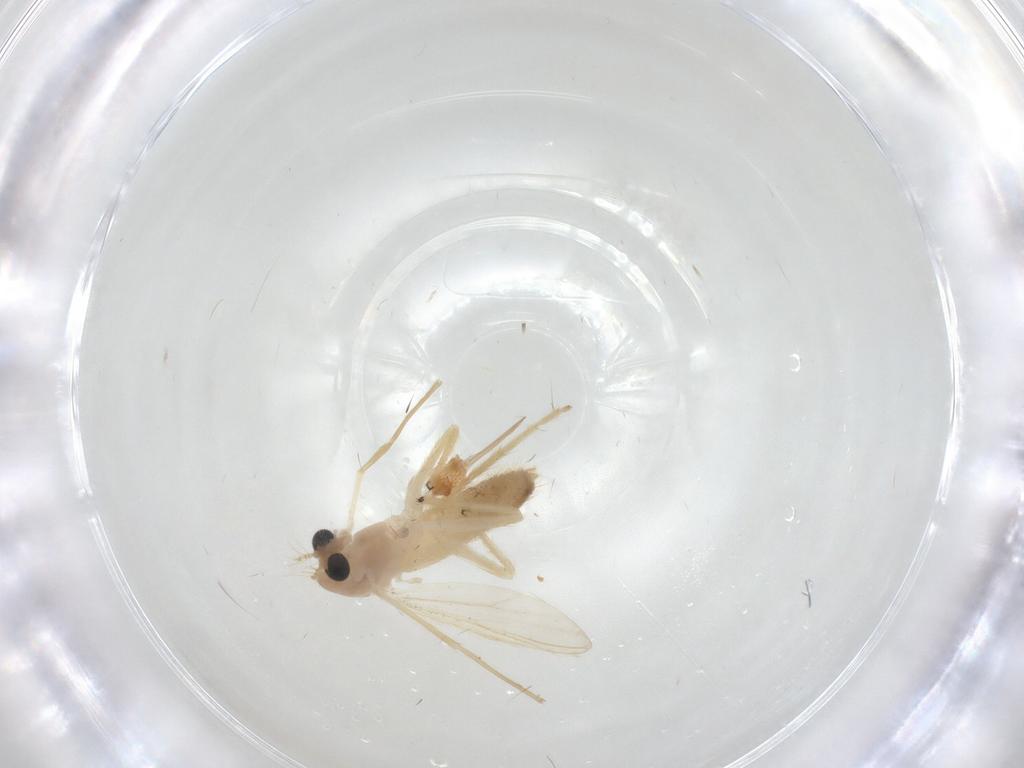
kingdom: Animalia
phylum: Arthropoda
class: Insecta
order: Diptera
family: Chironomidae
